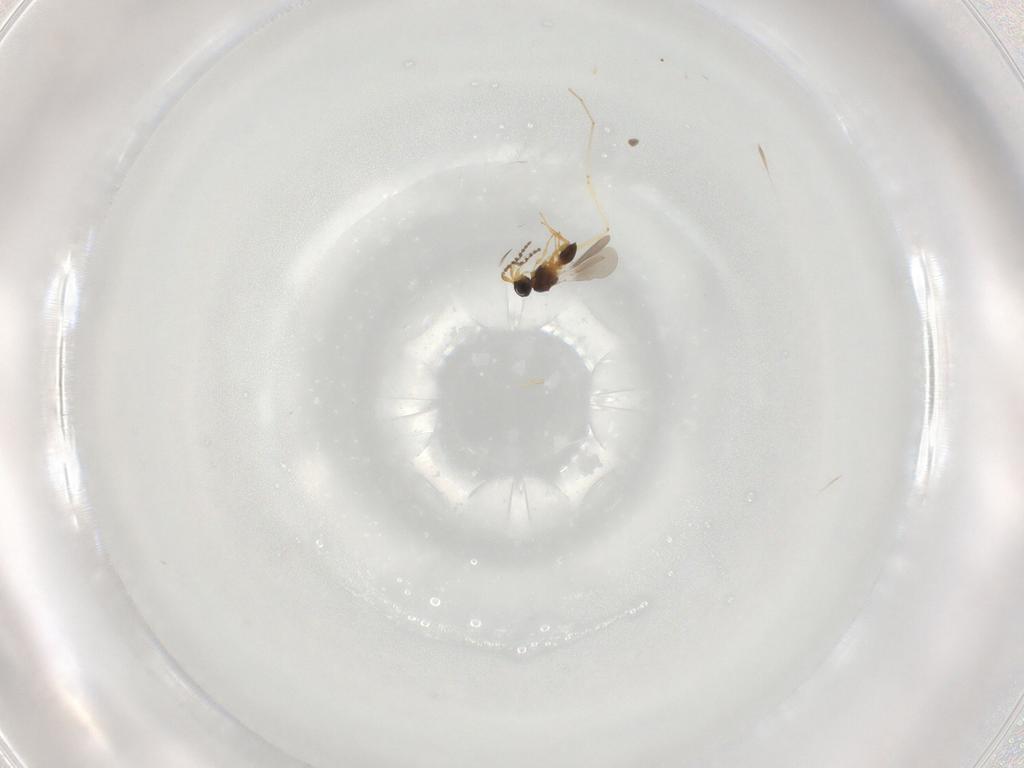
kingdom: Animalia
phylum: Arthropoda
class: Insecta
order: Hymenoptera
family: Platygastridae
